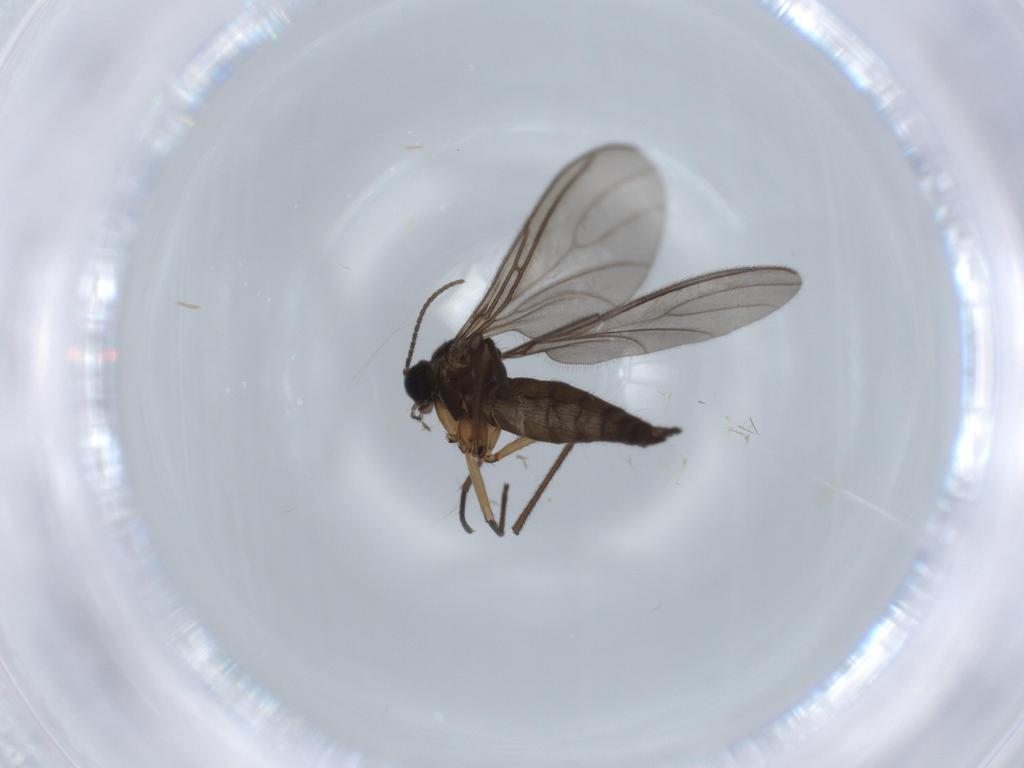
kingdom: Animalia
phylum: Arthropoda
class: Insecta
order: Diptera
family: Sciaridae
